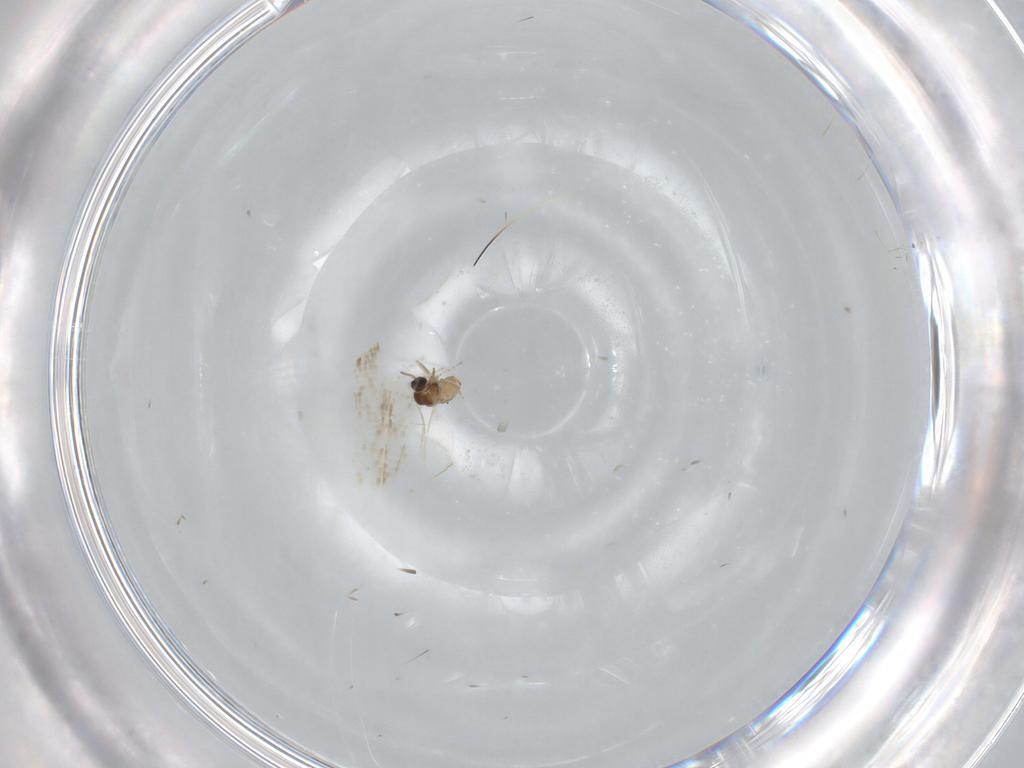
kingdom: Animalia
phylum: Arthropoda
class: Insecta
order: Diptera
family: Cecidomyiidae
